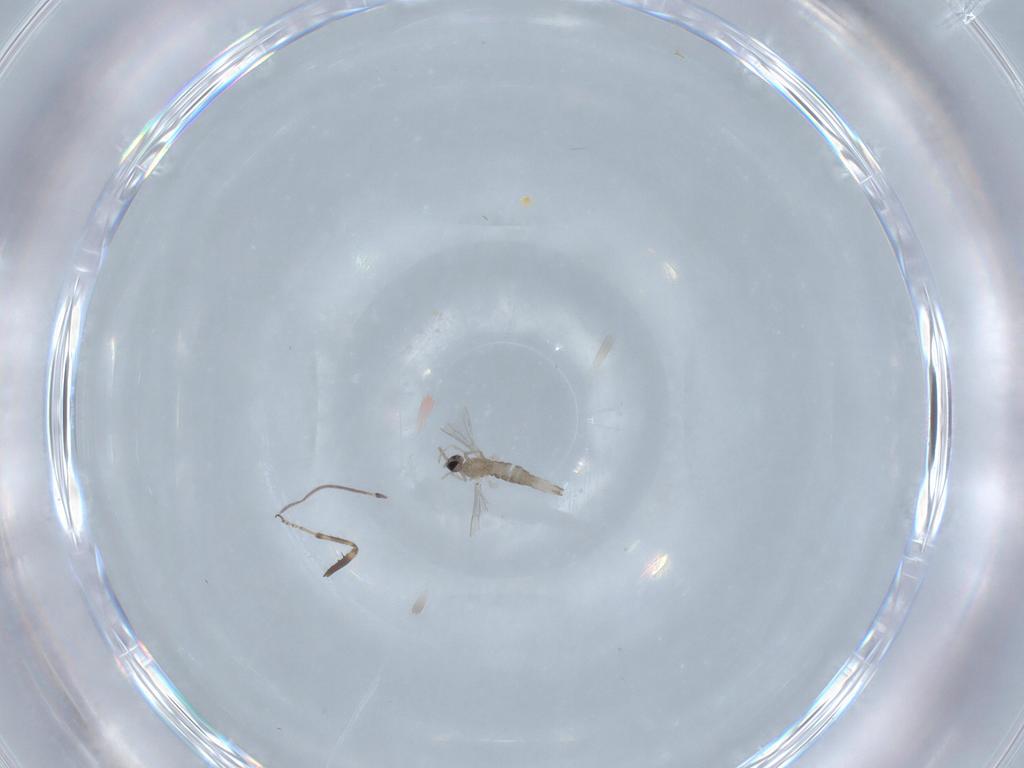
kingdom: Animalia
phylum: Arthropoda
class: Insecta
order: Diptera
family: Cecidomyiidae
